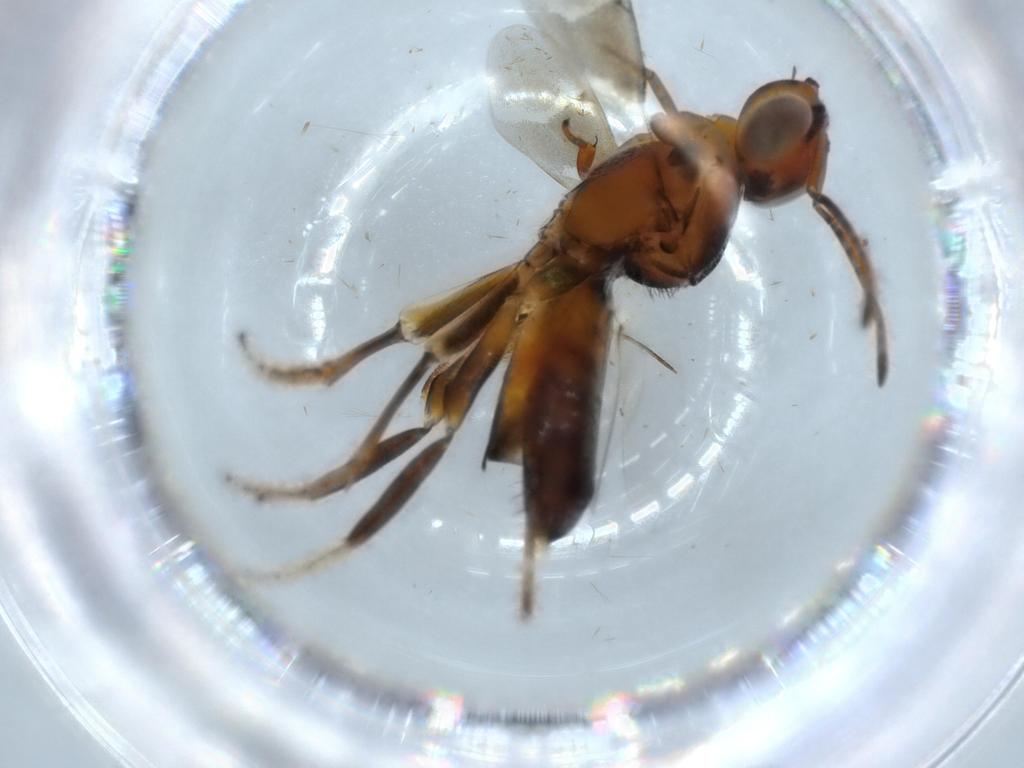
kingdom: Animalia
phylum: Arthropoda
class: Insecta
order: Hymenoptera
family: Eupelmidae
